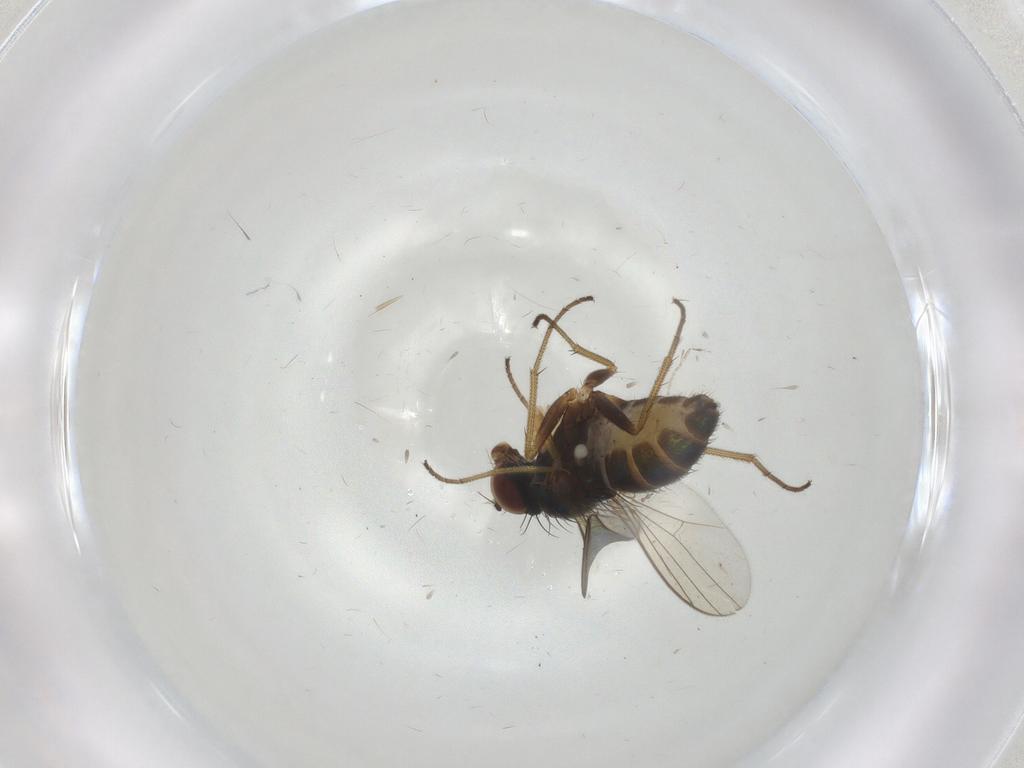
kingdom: Animalia
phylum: Arthropoda
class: Insecta
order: Diptera
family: Dolichopodidae
